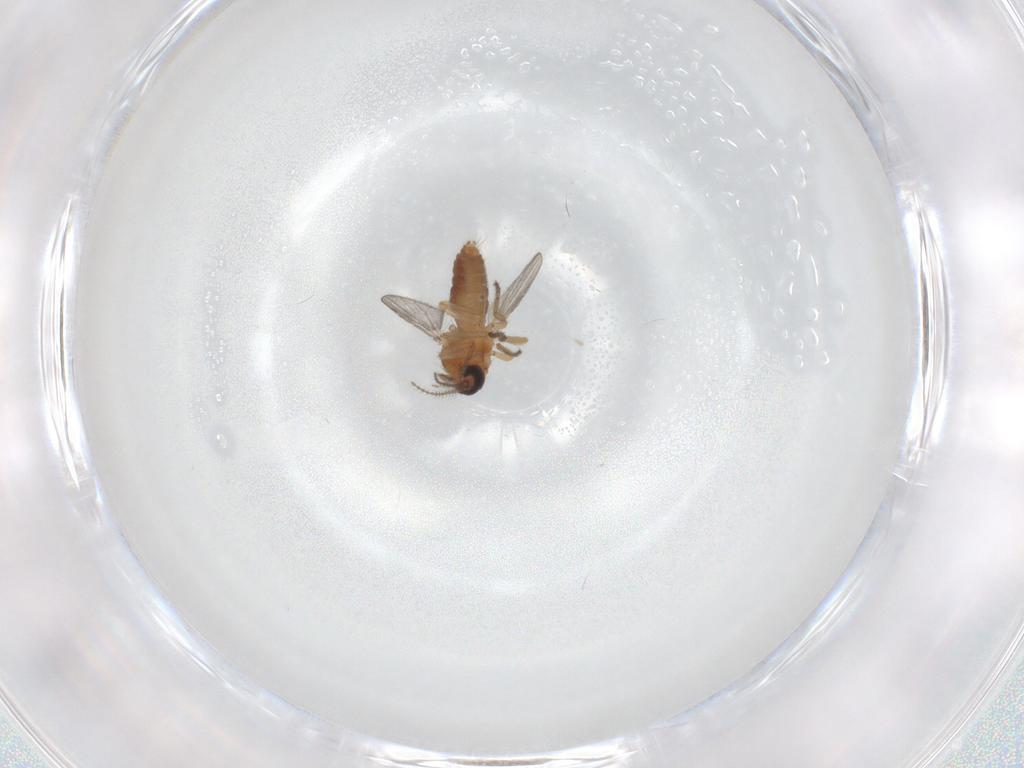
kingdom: Animalia
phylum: Arthropoda
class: Insecta
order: Diptera
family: Ceratopogonidae
